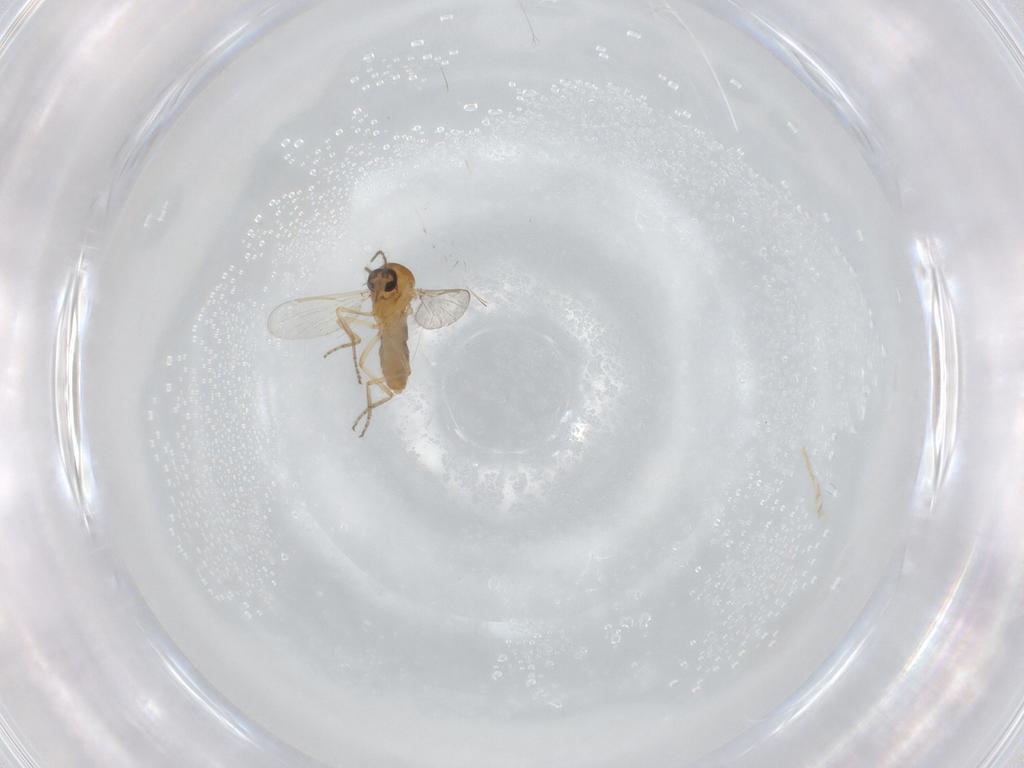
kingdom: Animalia
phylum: Arthropoda
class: Insecta
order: Diptera
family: Ceratopogonidae
